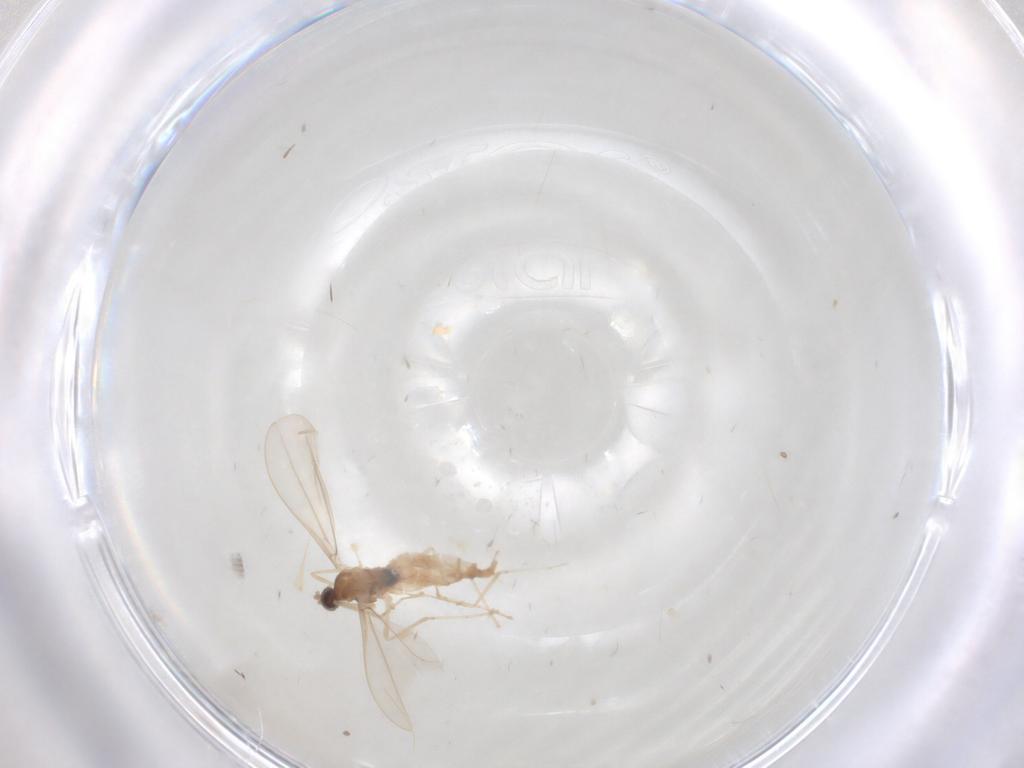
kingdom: Animalia
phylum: Arthropoda
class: Insecta
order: Diptera
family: Cecidomyiidae
